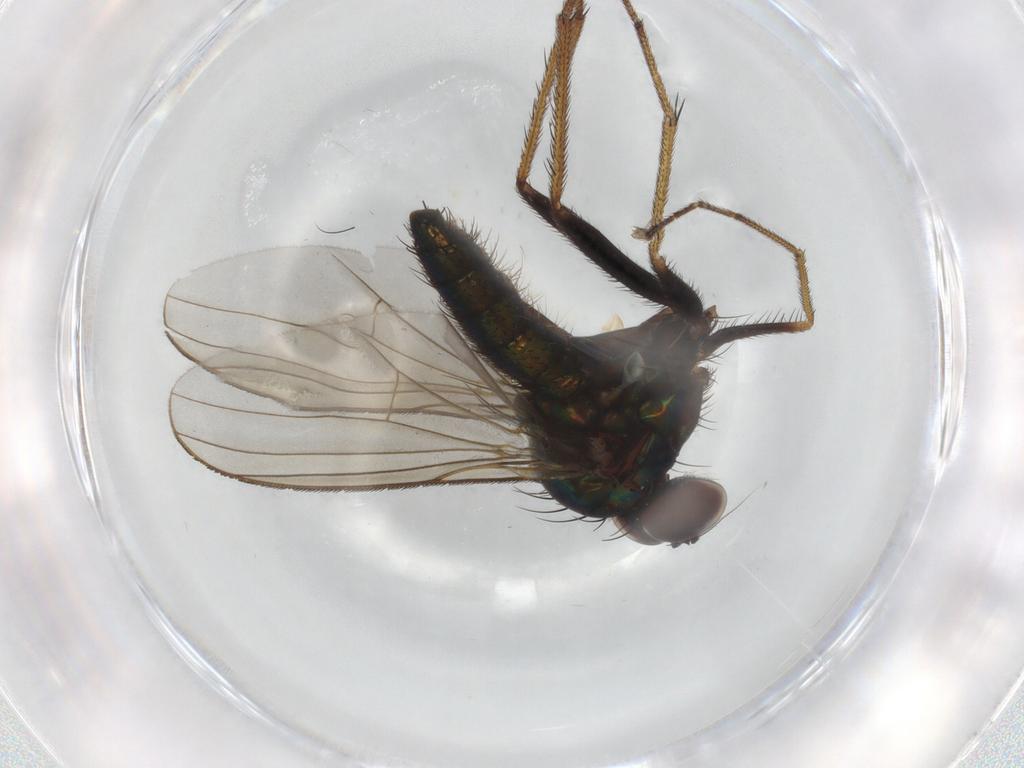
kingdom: Animalia
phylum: Arthropoda
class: Insecta
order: Diptera
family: Dolichopodidae
